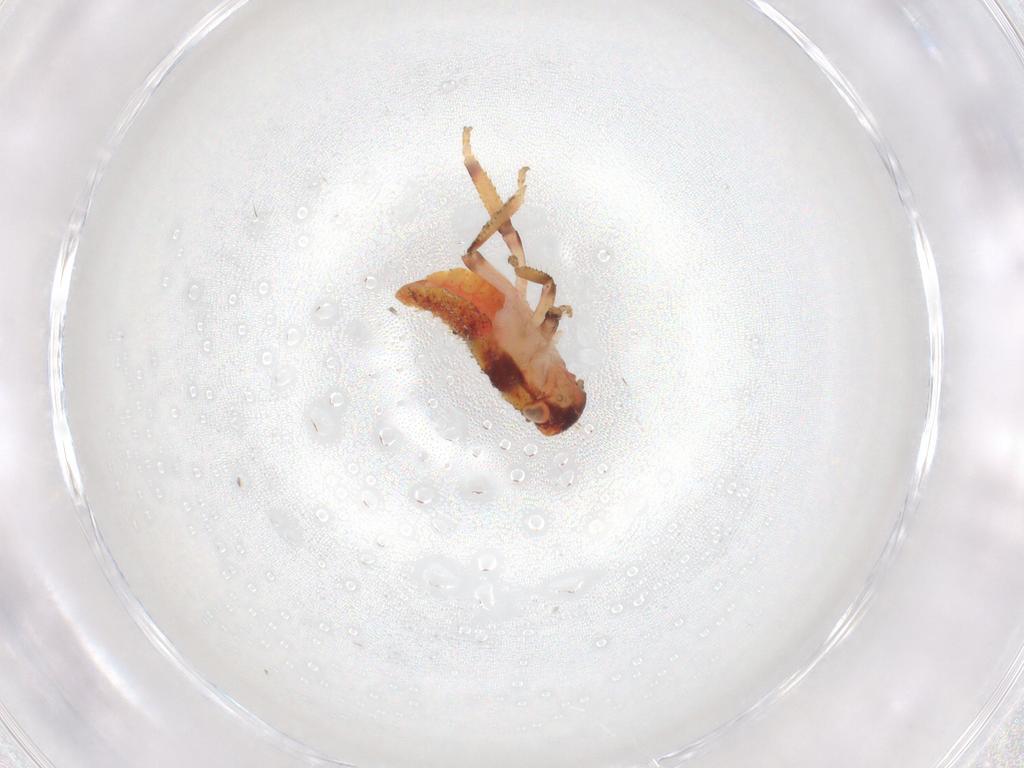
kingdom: Animalia
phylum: Arthropoda
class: Insecta
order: Hemiptera
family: Cicadellidae
